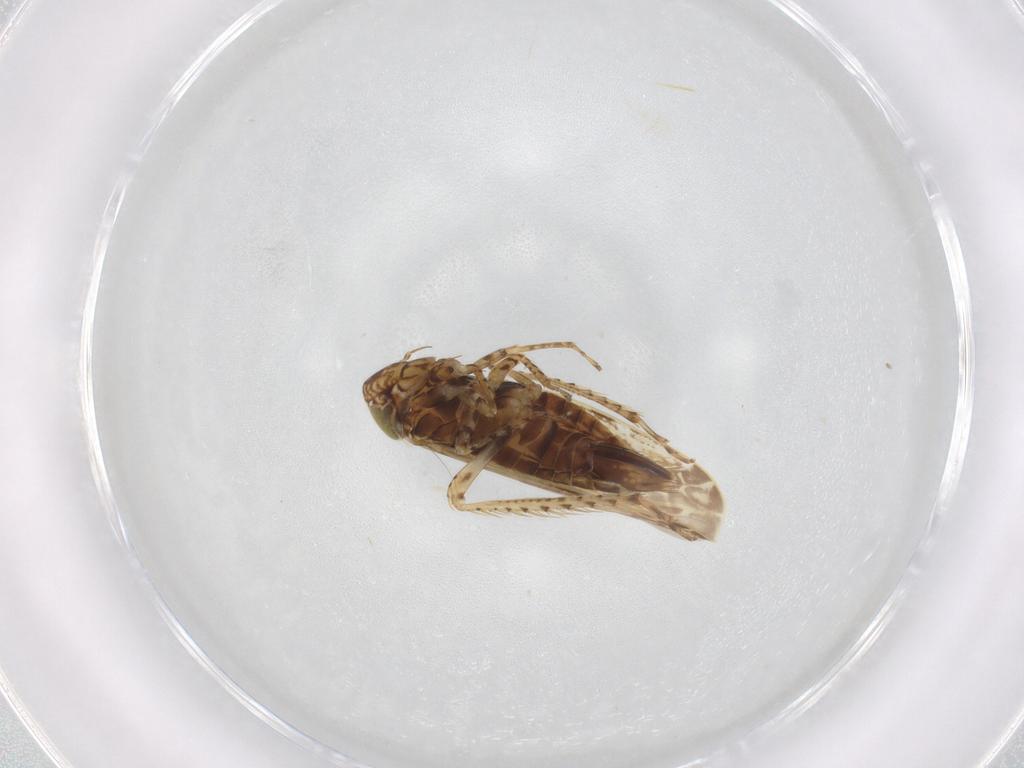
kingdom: Animalia
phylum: Arthropoda
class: Insecta
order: Hemiptera
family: Cicadellidae
